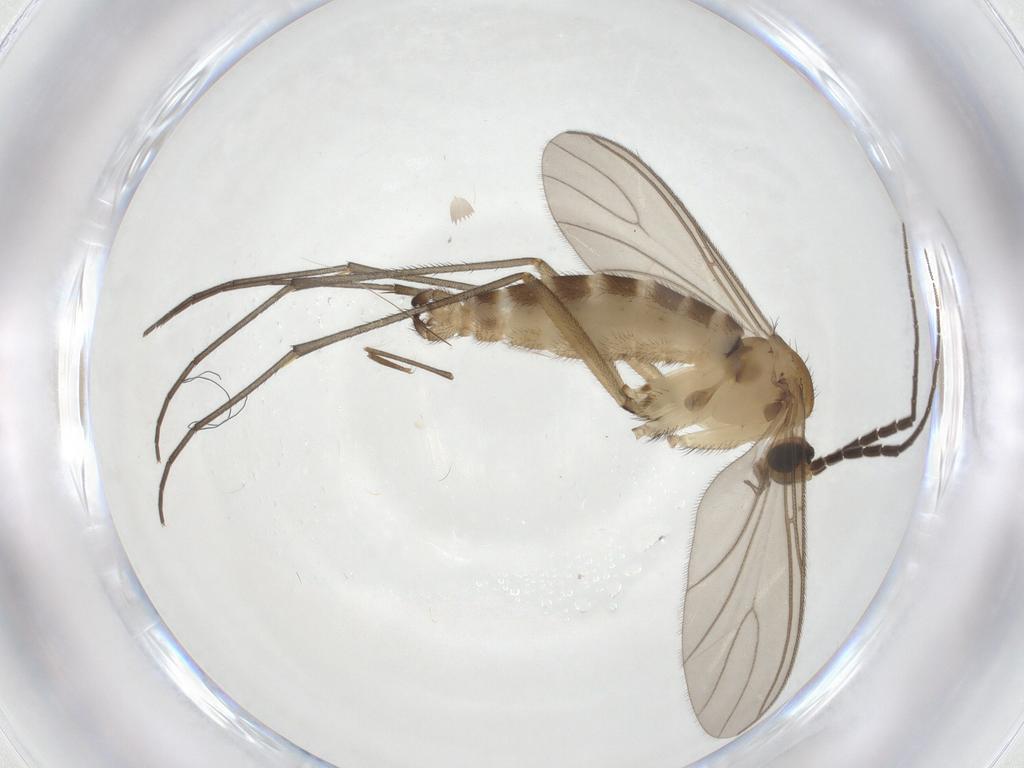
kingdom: Animalia
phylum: Arthropoda
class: Insecta
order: Diptera
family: Sciaridae
